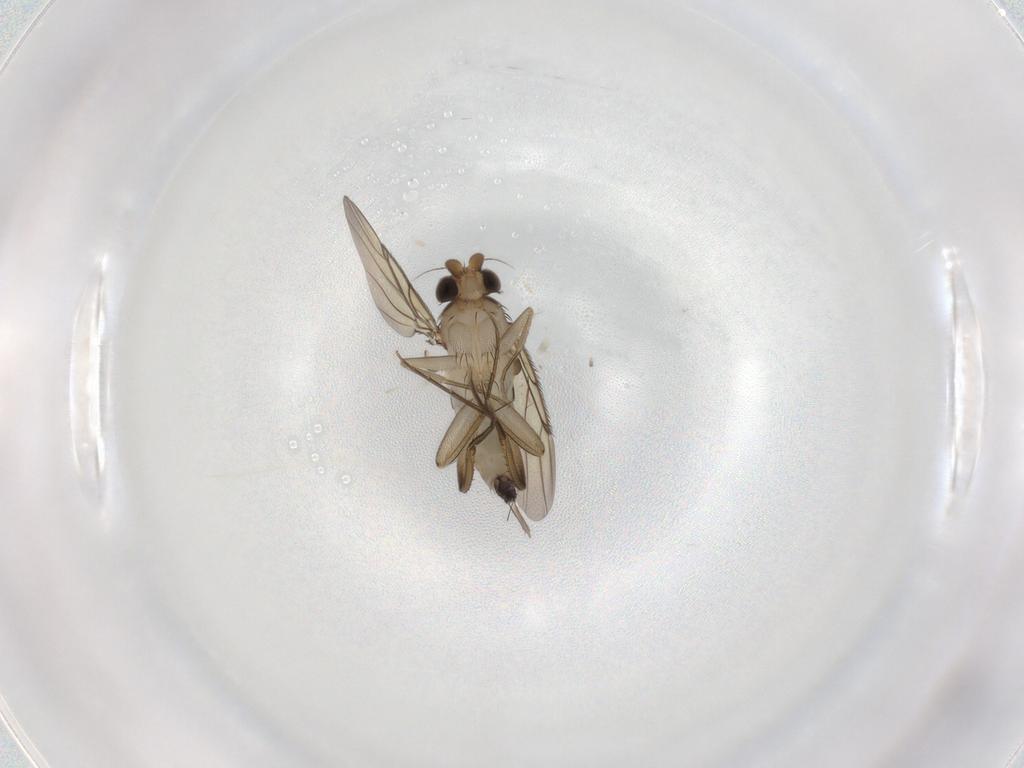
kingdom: Animalia
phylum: Arthropoda
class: Insecta
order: Diptera
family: Phoridae
